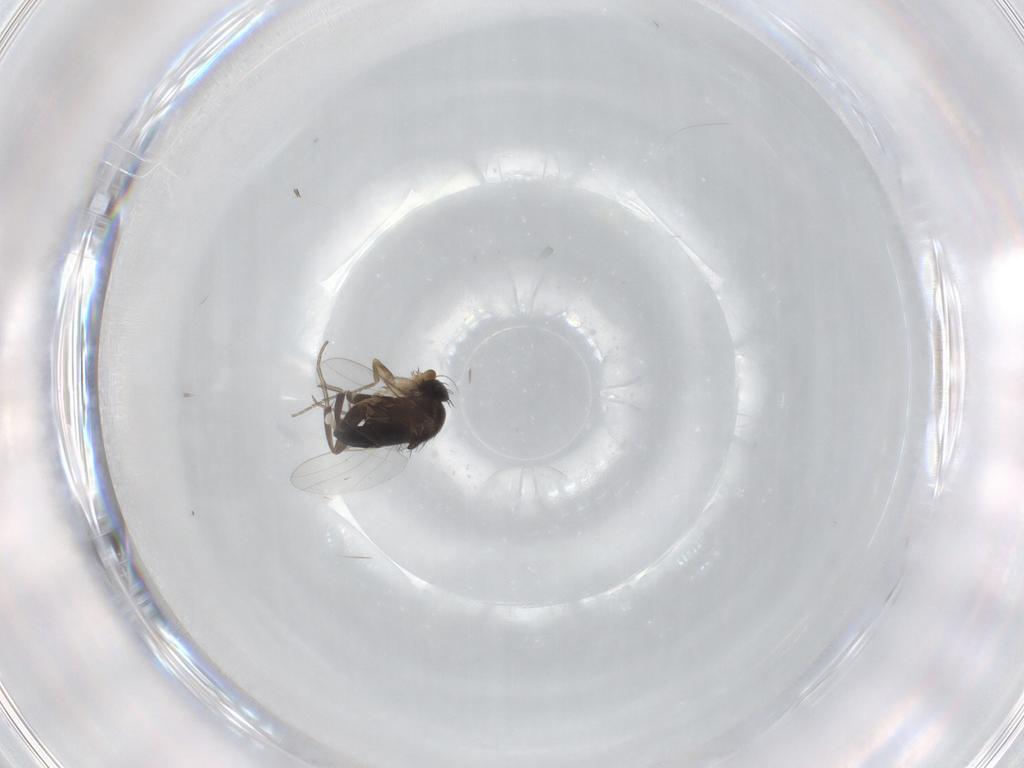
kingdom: Animalia
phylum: Arthropoda
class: Insecta
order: Diptera
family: Phoridae
